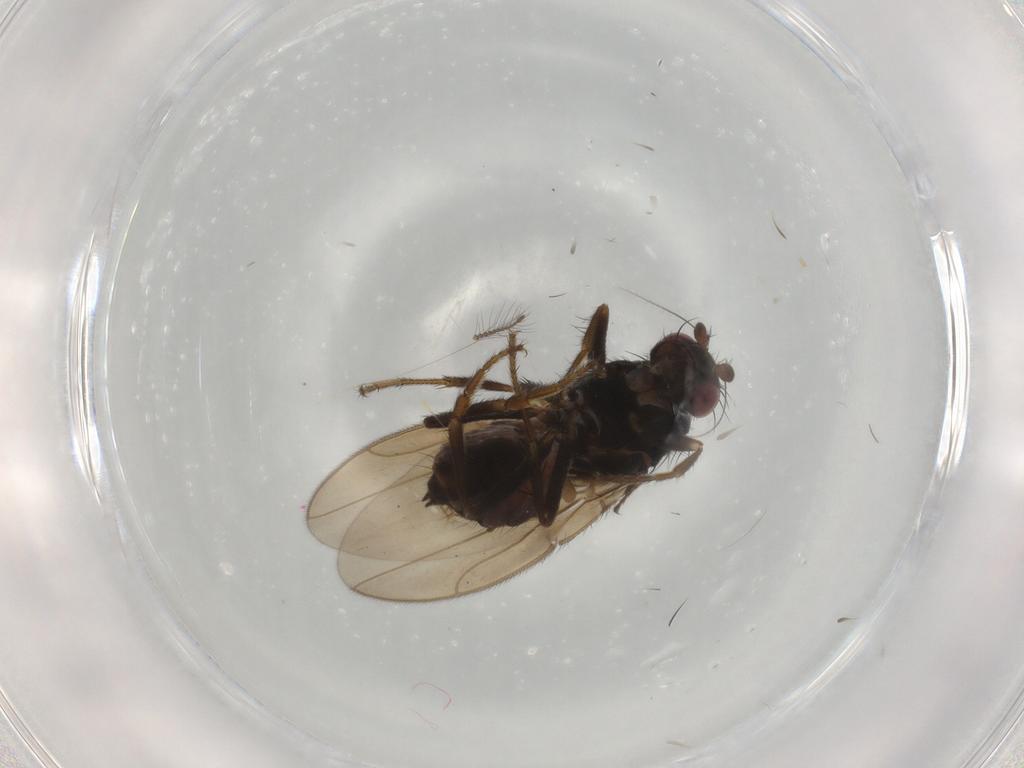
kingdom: Animalia
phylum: Arthropoda
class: Insecta
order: Diptera
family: Sphaeroceridae
